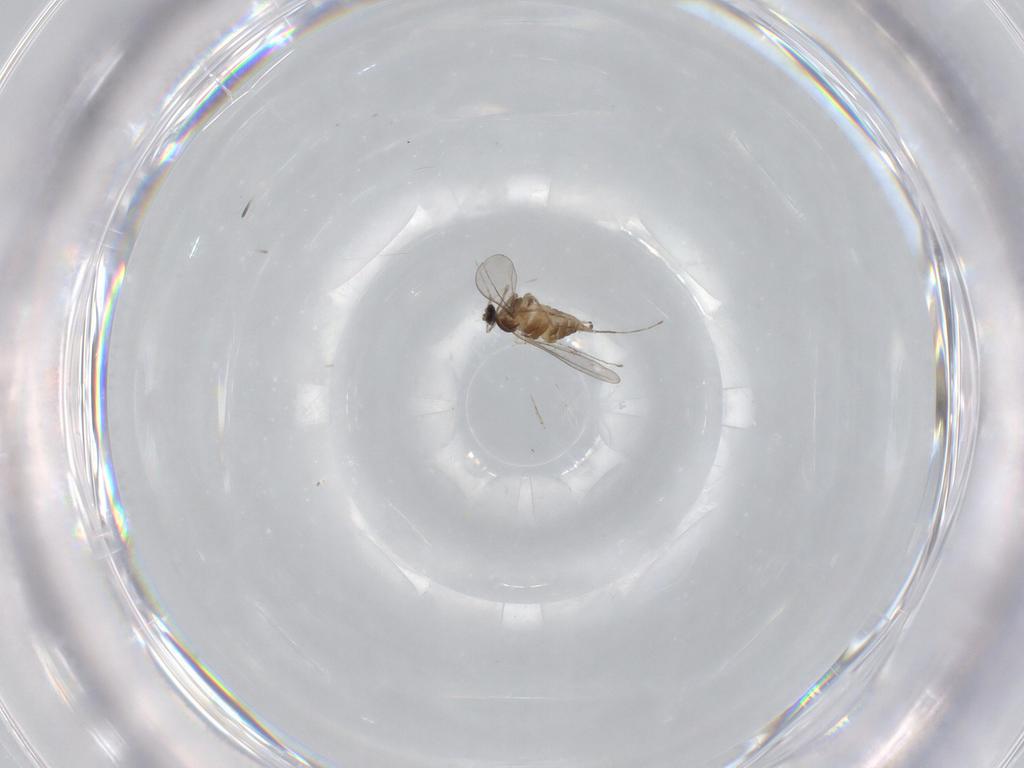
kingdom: Animalia
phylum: Arthropoda
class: Insecta
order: Diptera
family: Cecidomyiidae
